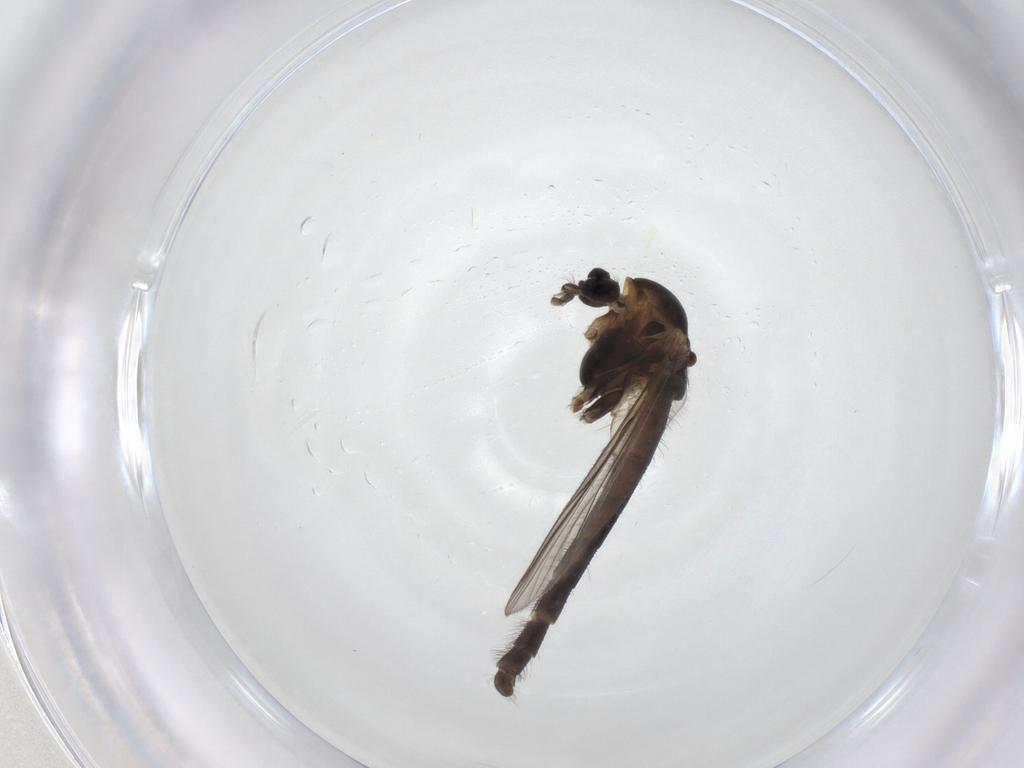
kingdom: Animalia
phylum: Arthropoda
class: Insecta
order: Diptera
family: Chironomidae
